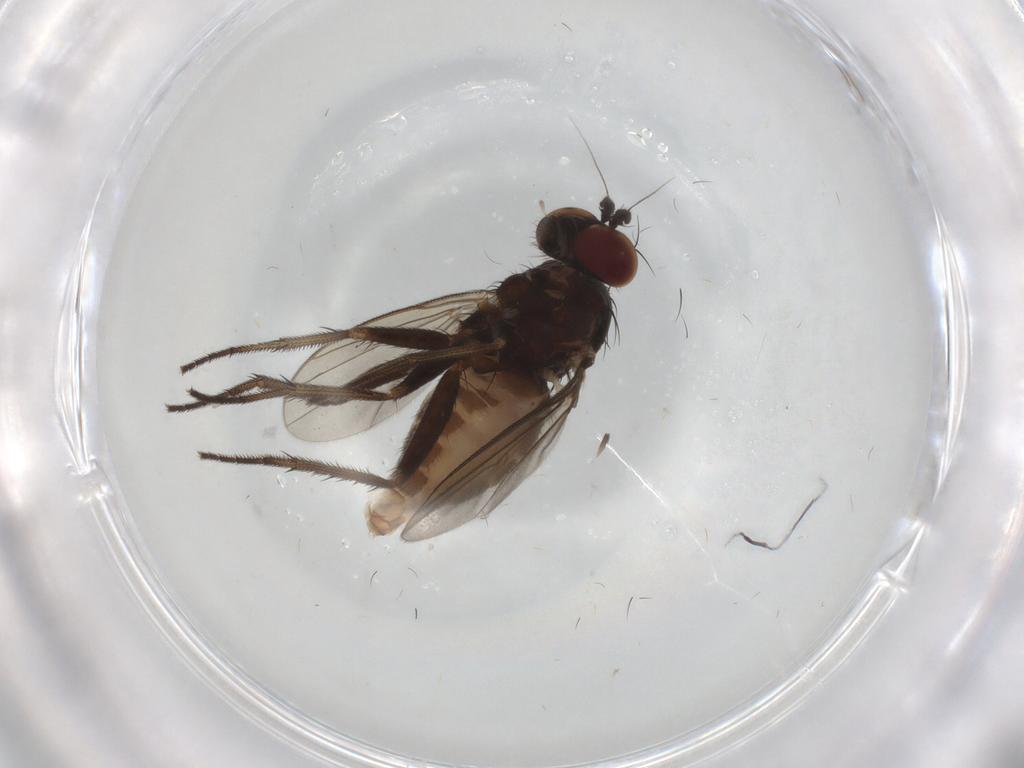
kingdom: Animalia
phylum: Arthropoda
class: Insecta
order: Diptera
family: Dolichopodidae
